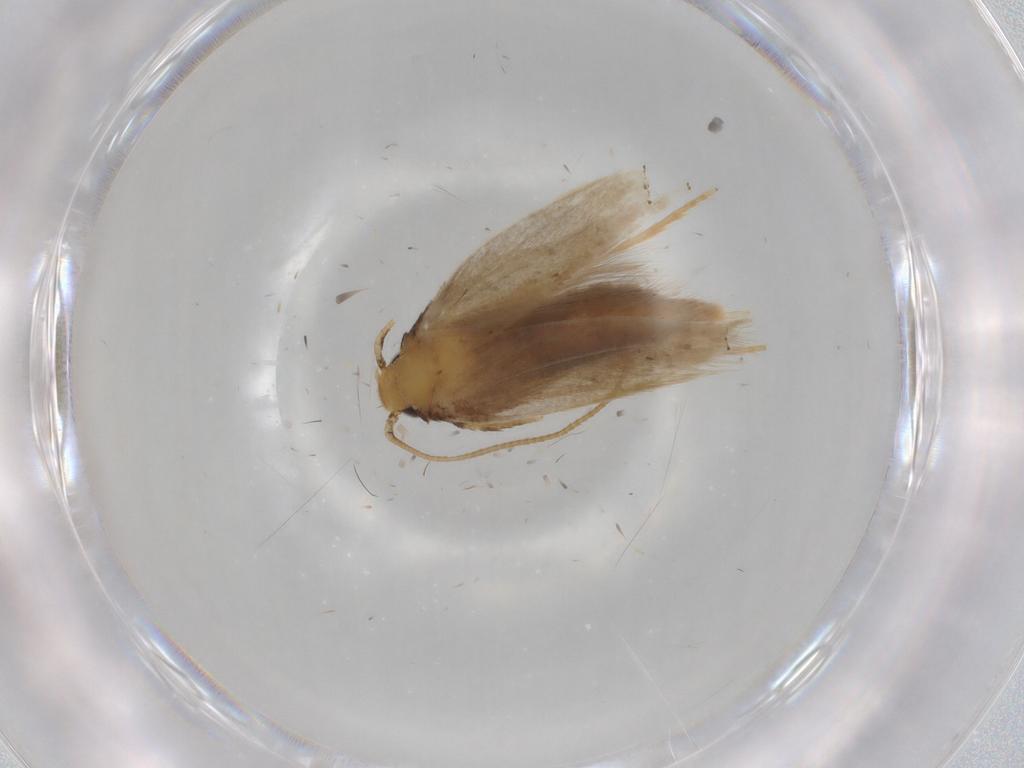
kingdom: Animalia
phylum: Arthropoda
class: Insecta
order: Lepidoptera
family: Tineidae
